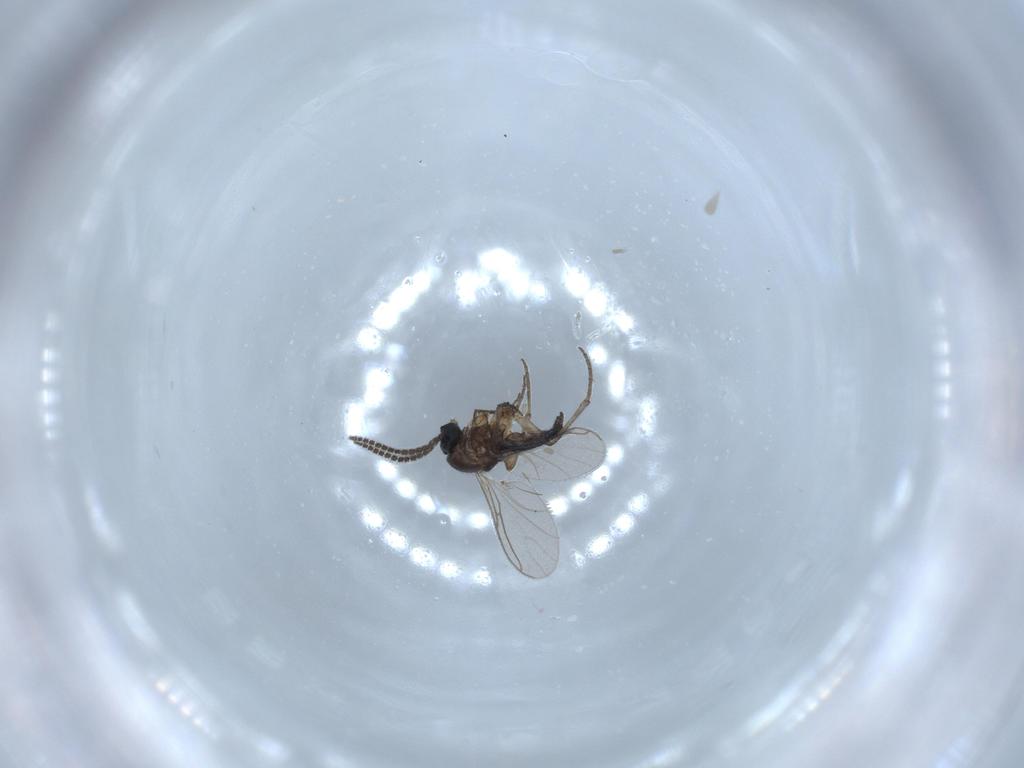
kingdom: Animalia
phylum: Arthropoda
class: Insecta
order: Diptera
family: Sciaridae
